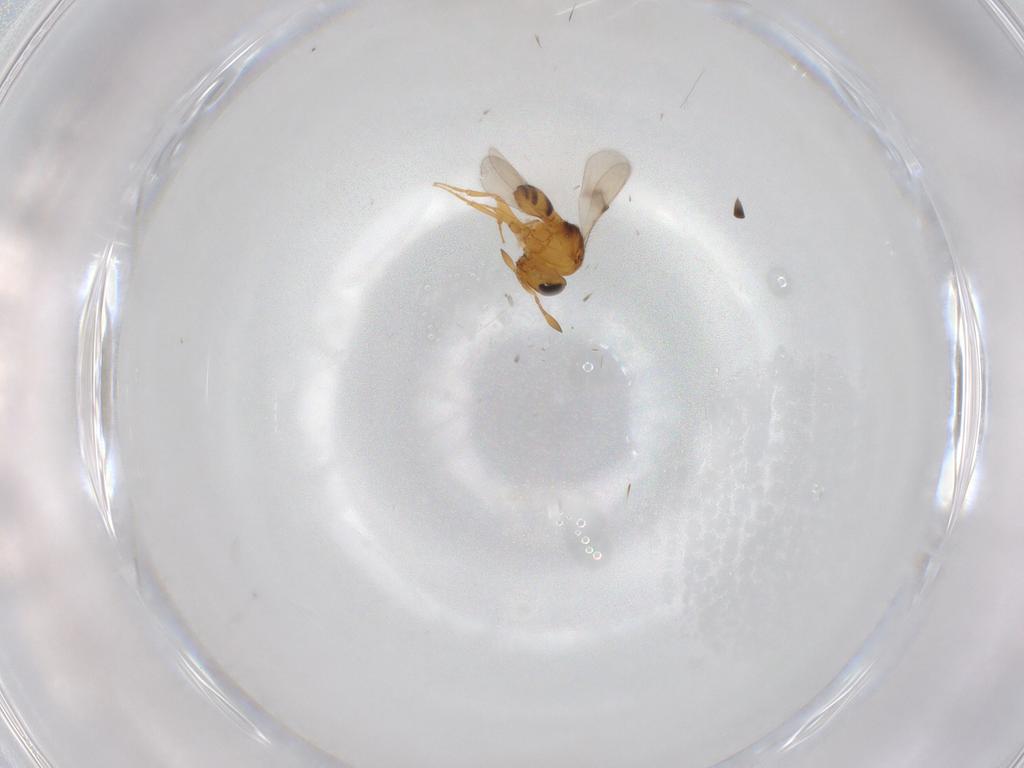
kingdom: Animalia
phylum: Arthropoda
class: Insecta
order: Hymenoptera
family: Scelionidae
